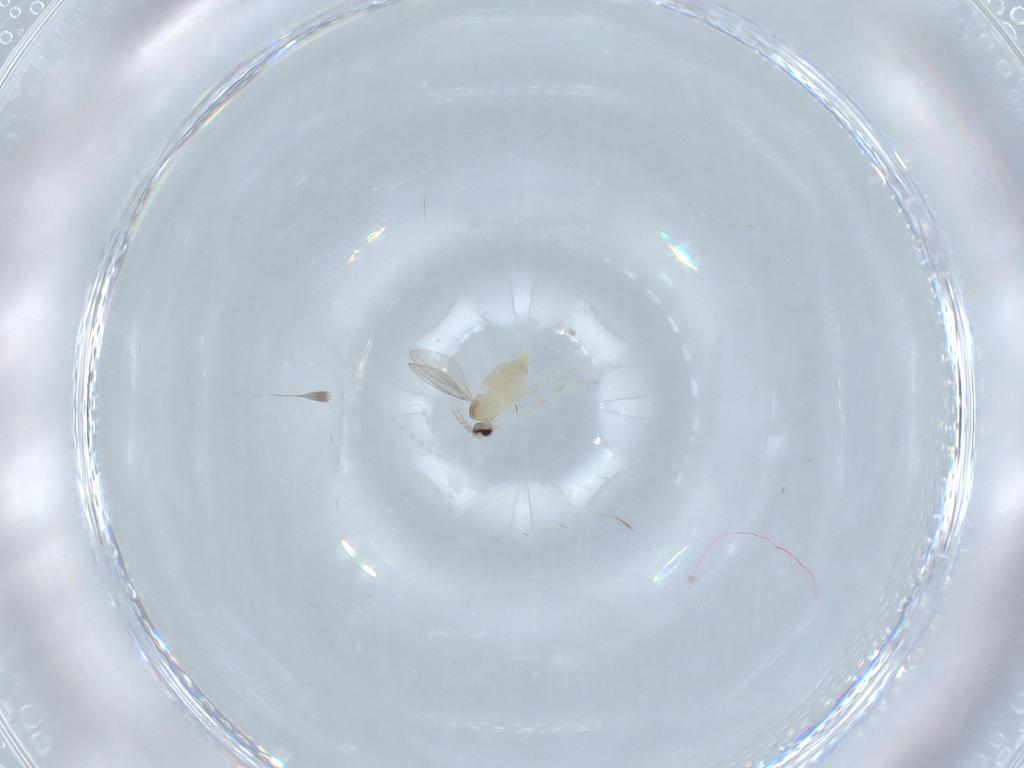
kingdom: Animalia
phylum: Arthropoda
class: Insecta
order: Diptera
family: Cecidomyiidae
